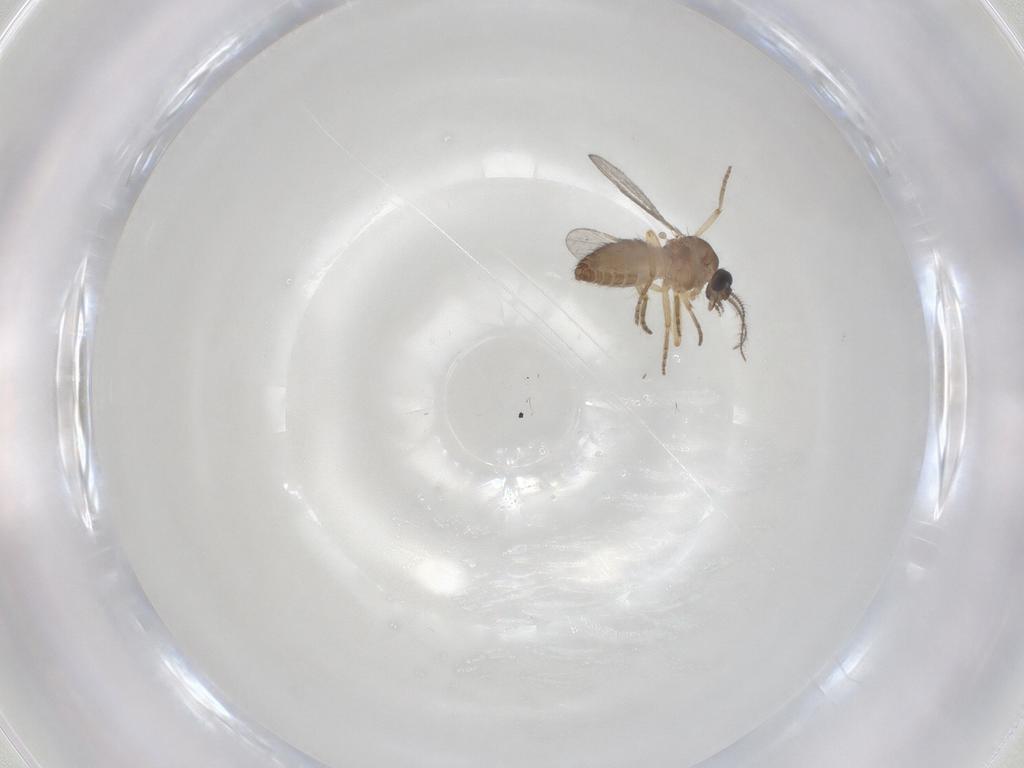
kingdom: Animalia
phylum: Arthropoda
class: Insecta
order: Diptera
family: Ceratopogonidae
